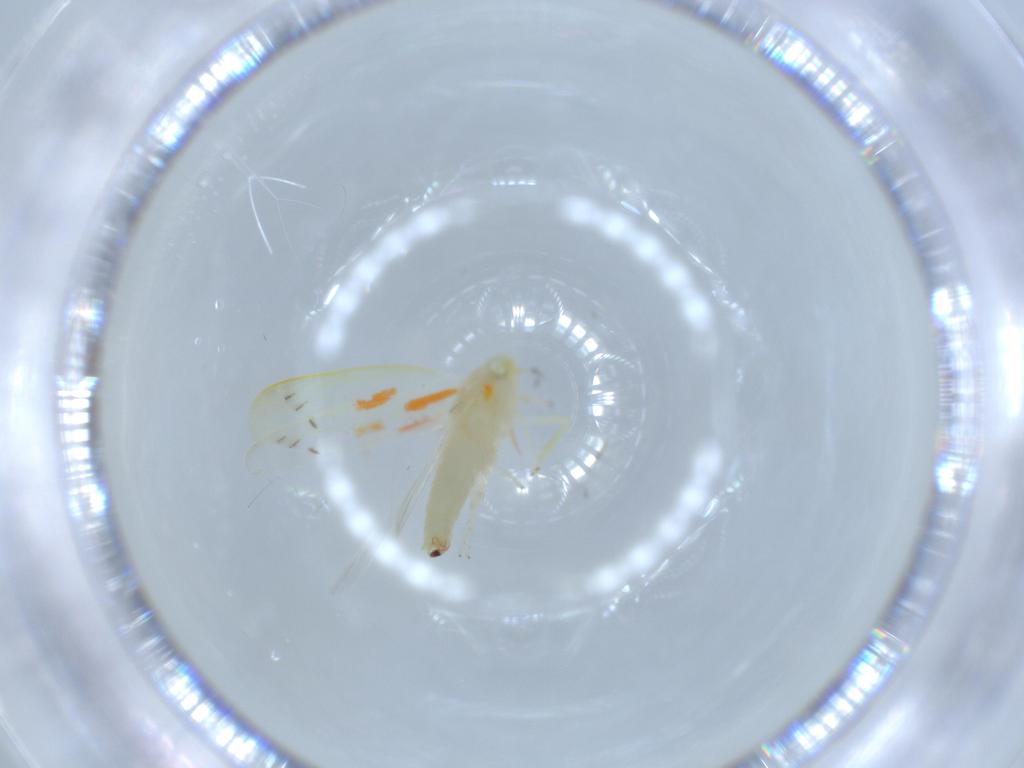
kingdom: Animalia
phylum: Arthropoda
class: Insecta
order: Hemiptera
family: Cicadellidae
